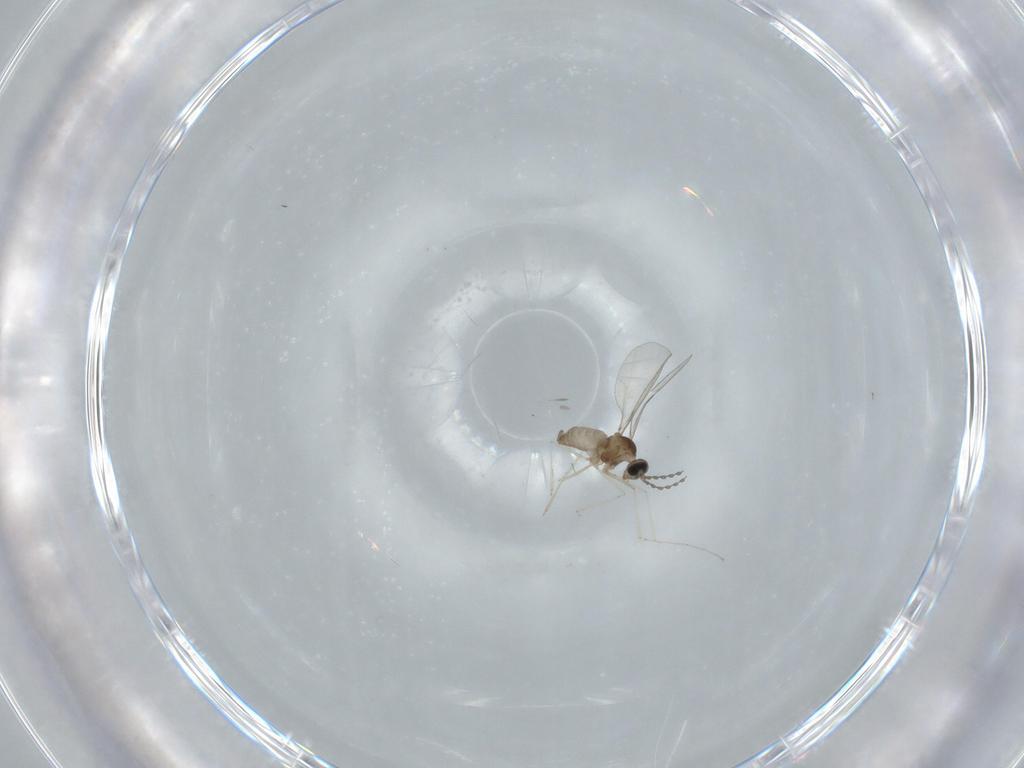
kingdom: Animalia
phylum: Arthropoda
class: Insecta
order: Diptera
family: Cecidomyiidae
